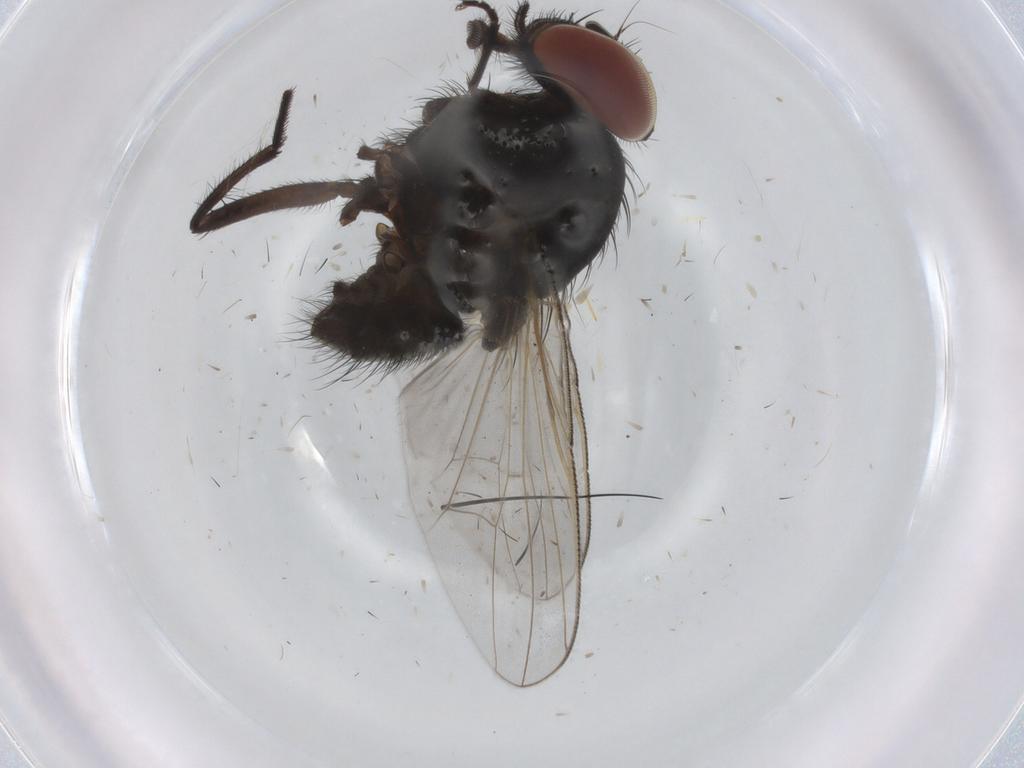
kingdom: Animalia
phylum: Arthropoda
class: Insecta
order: Diptera
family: Muscidae
